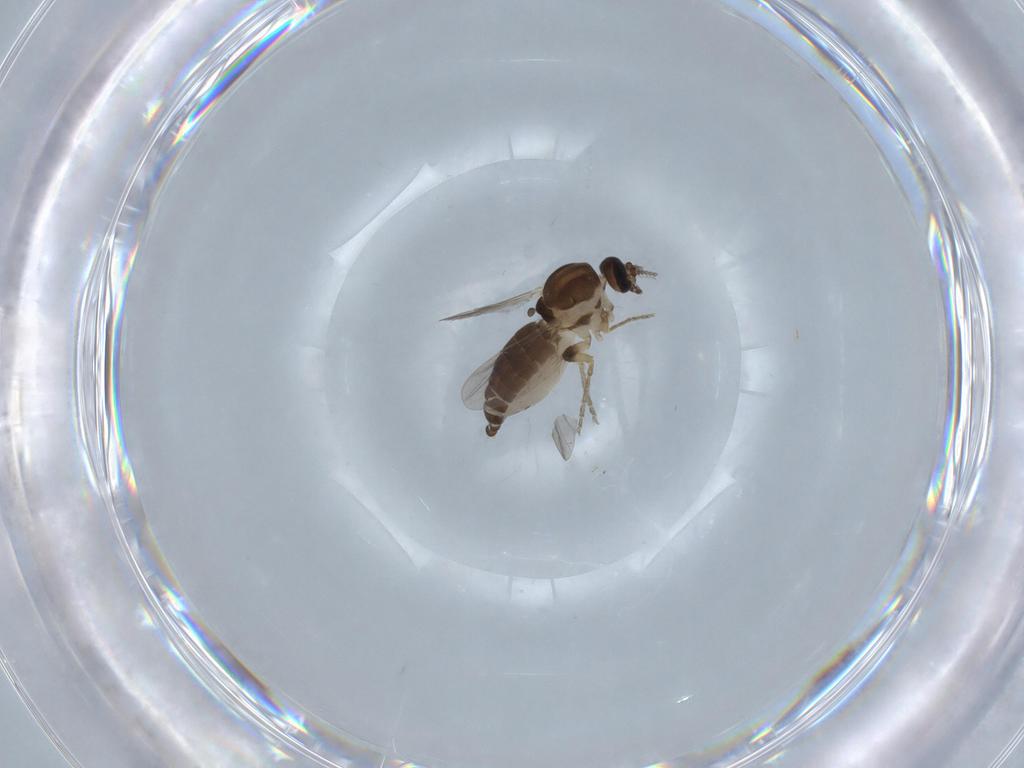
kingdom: Animalia
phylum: Arthropoda
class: Insecta
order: Diptera
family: Ceratopogonidae
